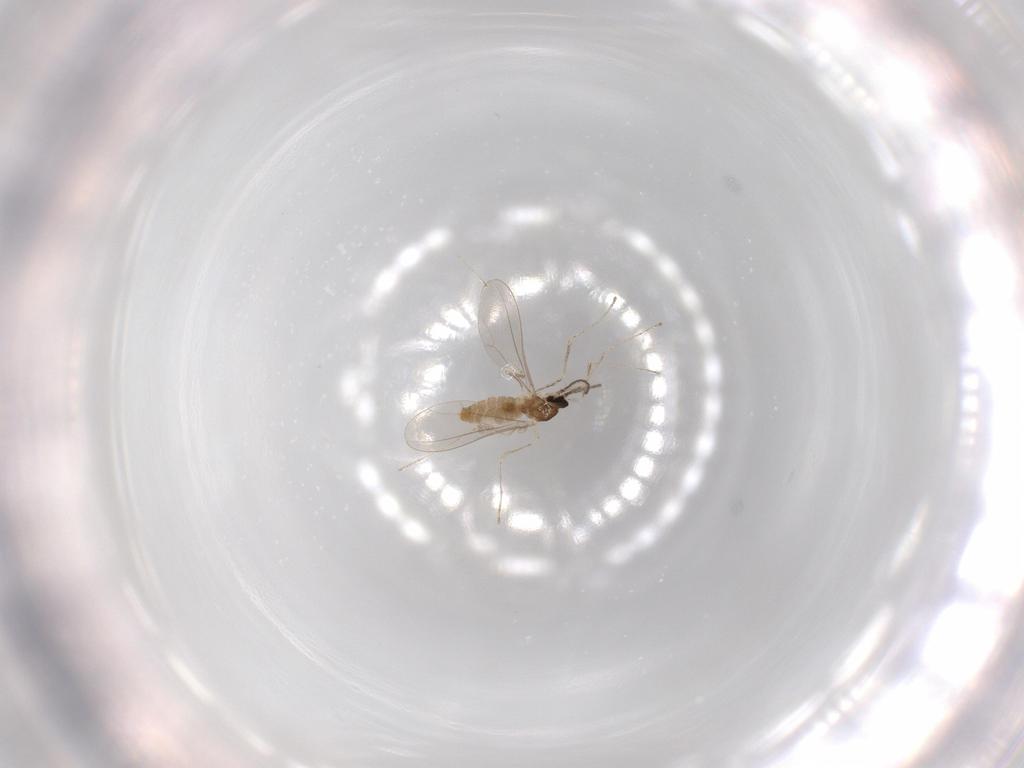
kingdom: Animalia
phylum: Arthropoda
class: Insecta
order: Diptera
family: Cecidomyiidae
